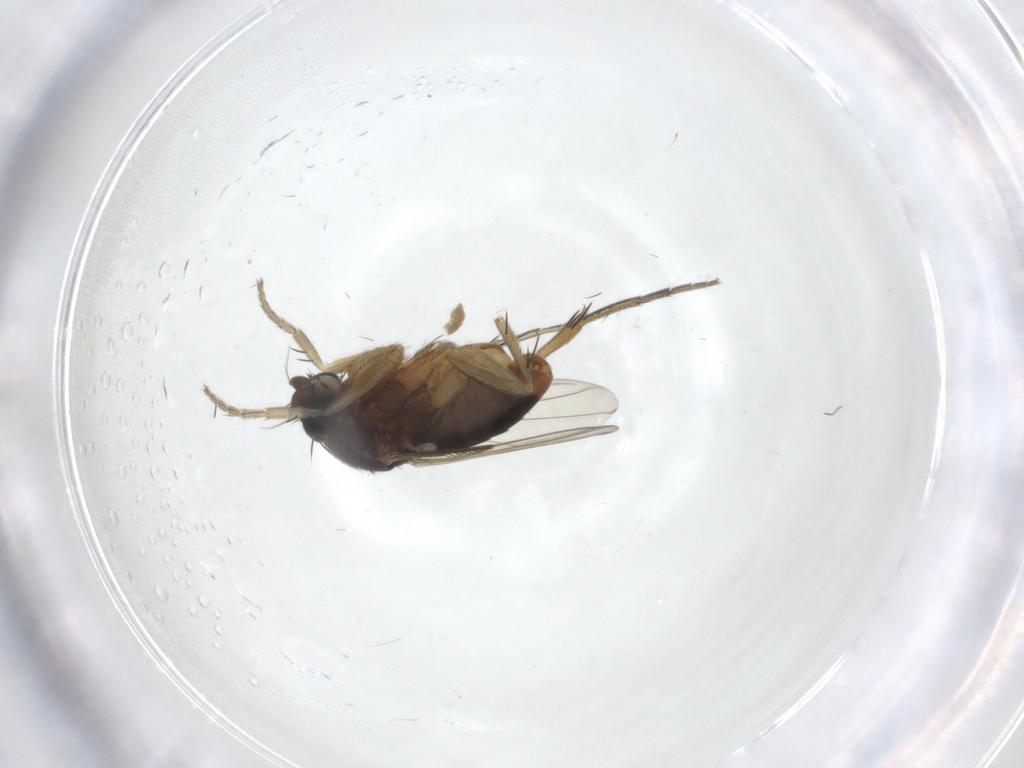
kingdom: Animalia
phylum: Arthropoda
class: Insecta
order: Diptera
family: Phoridae
